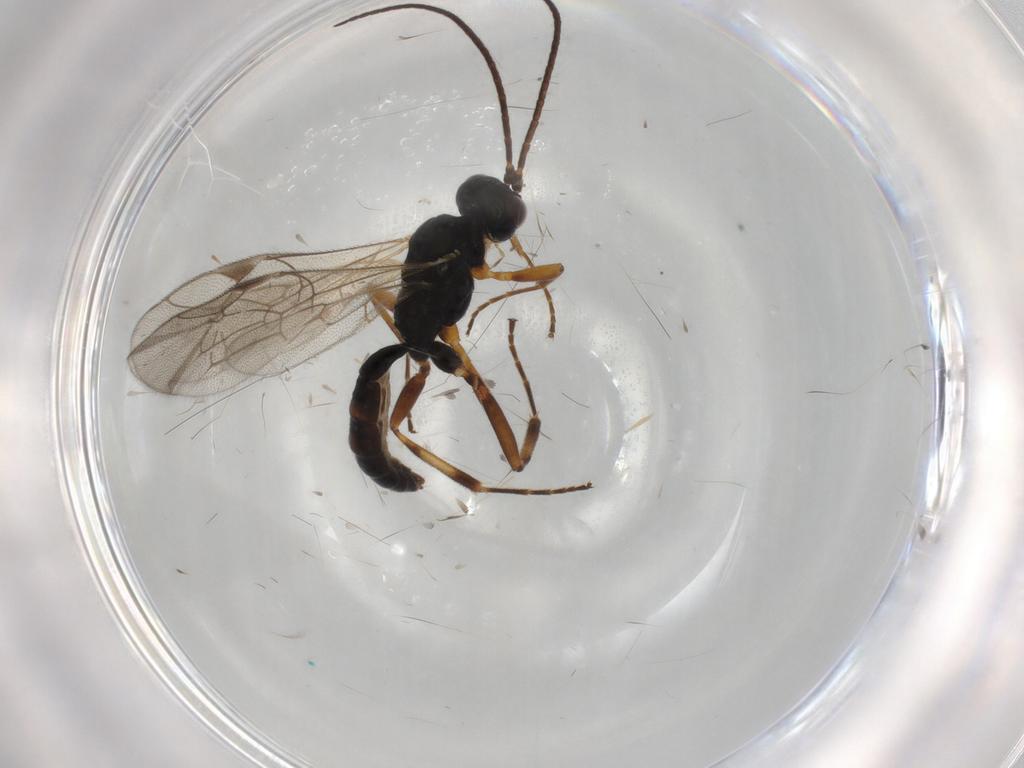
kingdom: Animalia
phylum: Arthropoda
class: Insecta
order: Hymenoptera
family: Ichneumonidae
